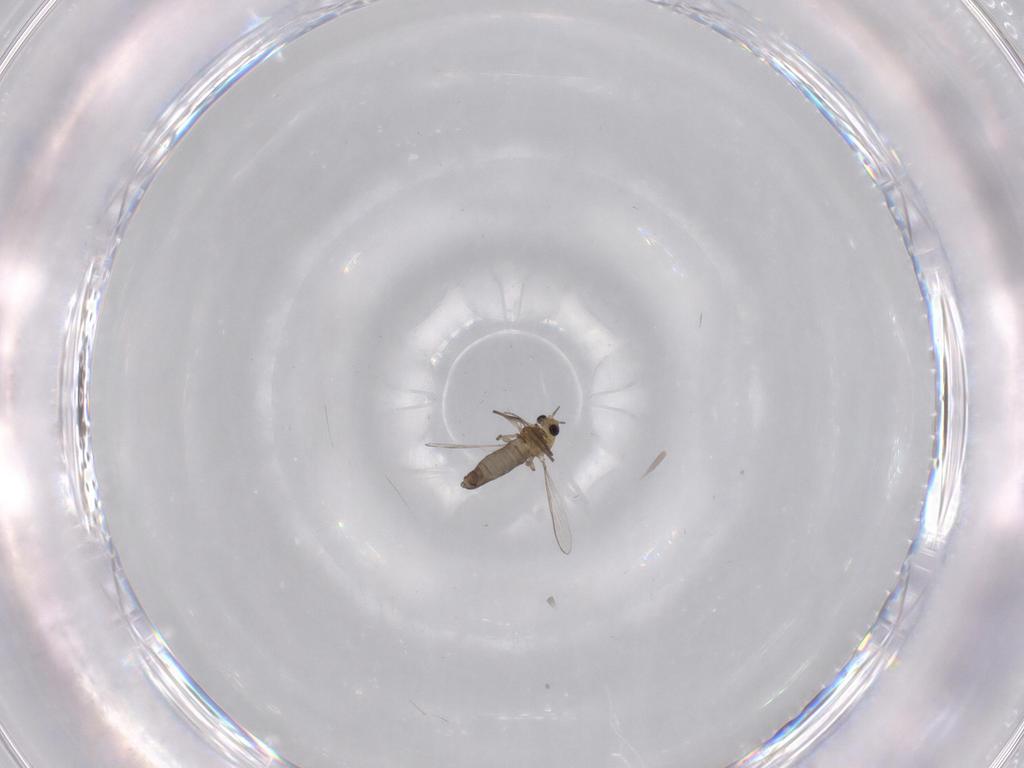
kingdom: Animalia
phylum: Arthropoda
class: Insecta
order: Diptera
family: Chironomidae
